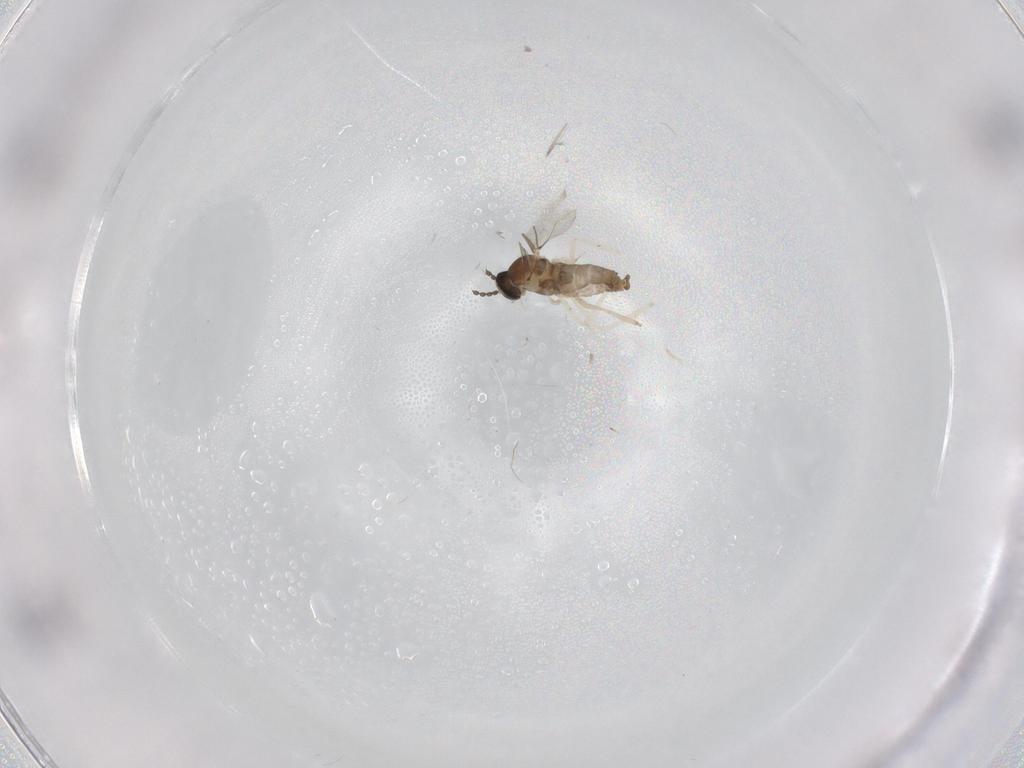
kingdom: Animalia
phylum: Arthropoda
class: Insecta
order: Diptera
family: Cecidomyiidae
